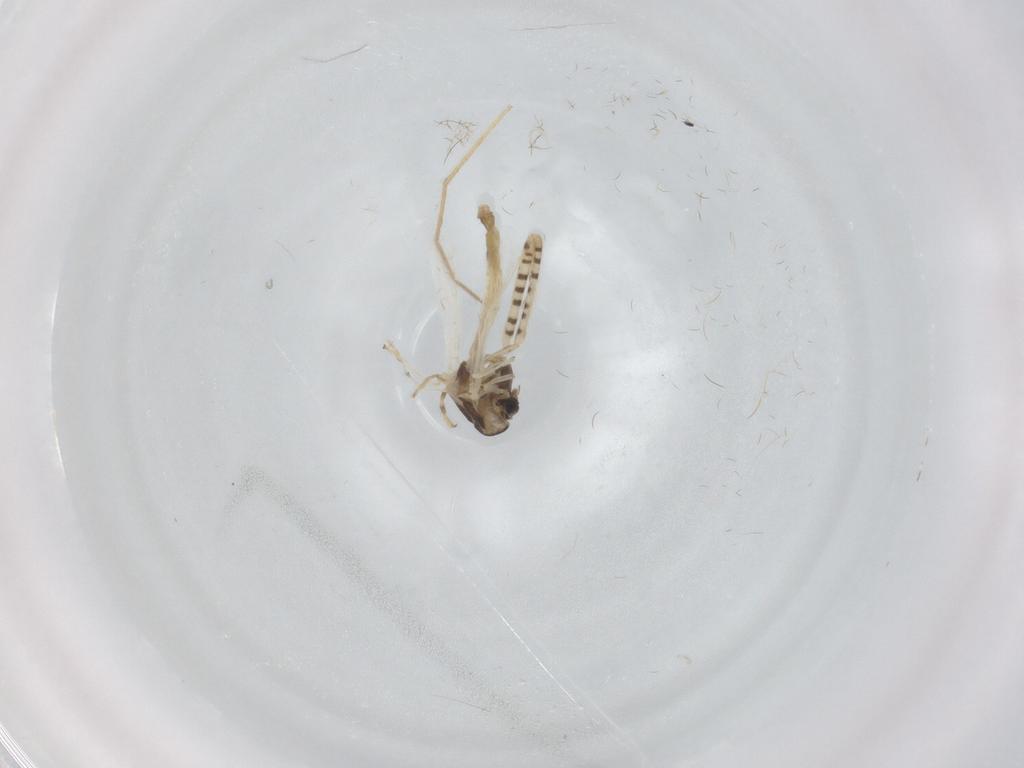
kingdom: Animalia
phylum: Arthropoda
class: Insecta
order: Diptera
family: Chironomidae
